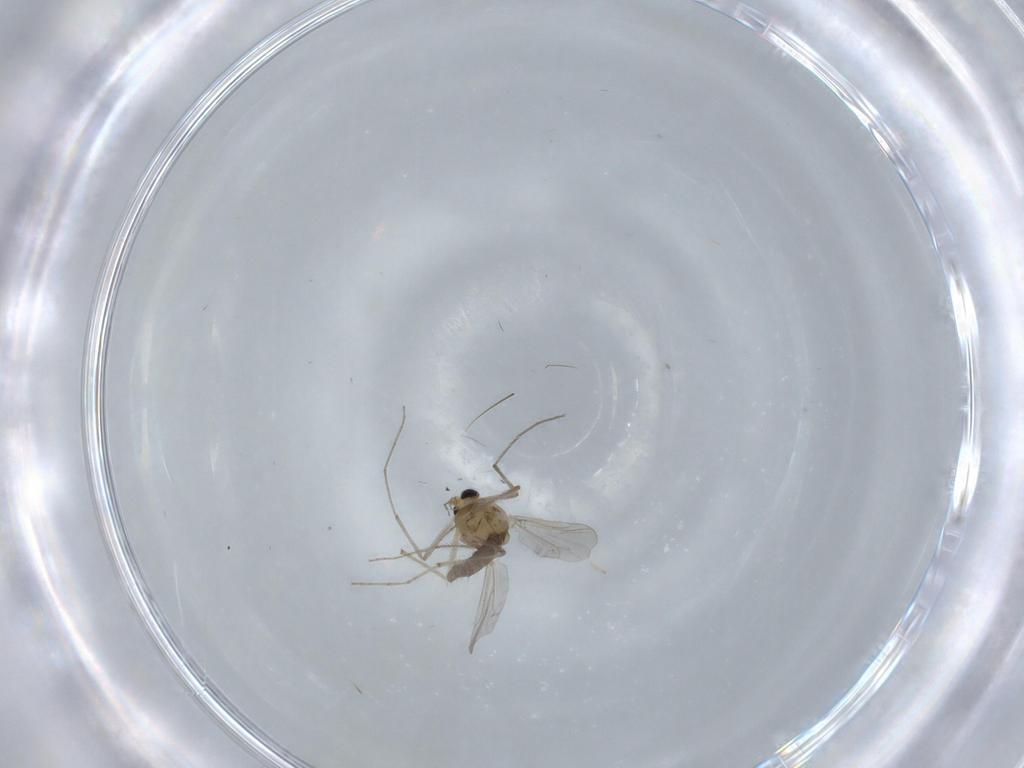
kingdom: Animalia
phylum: Arthropoda
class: Insecta
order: Diptera
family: Chironomidae
